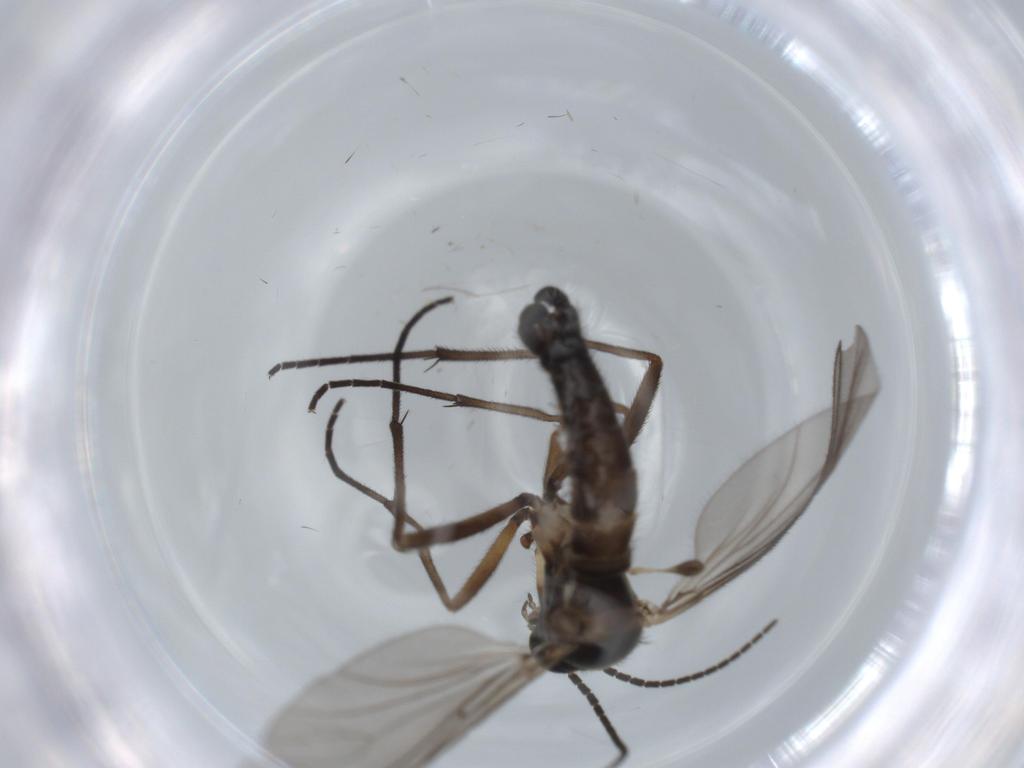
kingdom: Animalia
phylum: Arthropoda
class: Insecta
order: Diptera
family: Sciaridae
